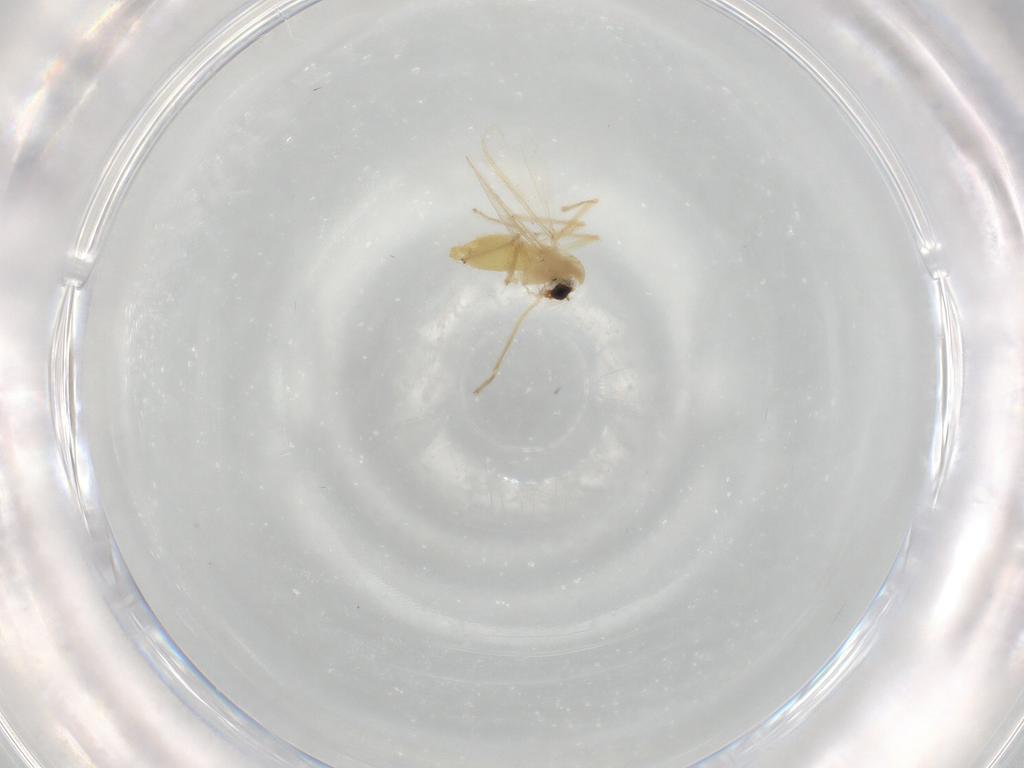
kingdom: Animalia
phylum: Arthropoda
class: Insecta
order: Diptera
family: Chironomidae
